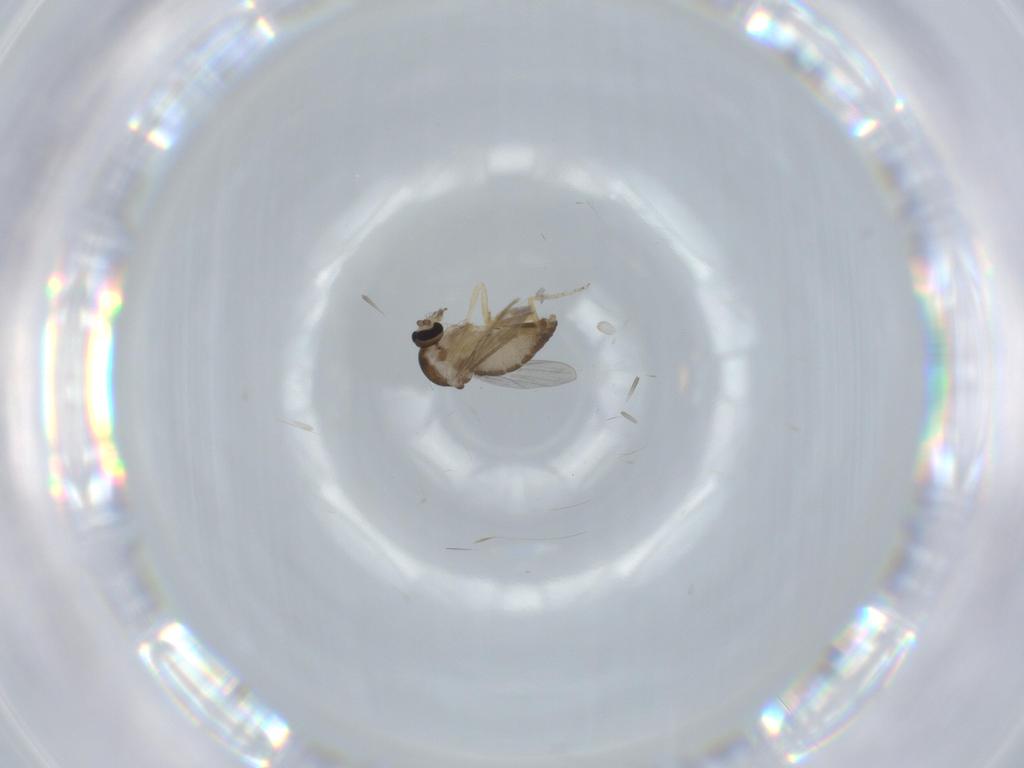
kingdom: Animalia
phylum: Arthropoda
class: Insecta
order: Diptera
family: Ceratopogonidae
